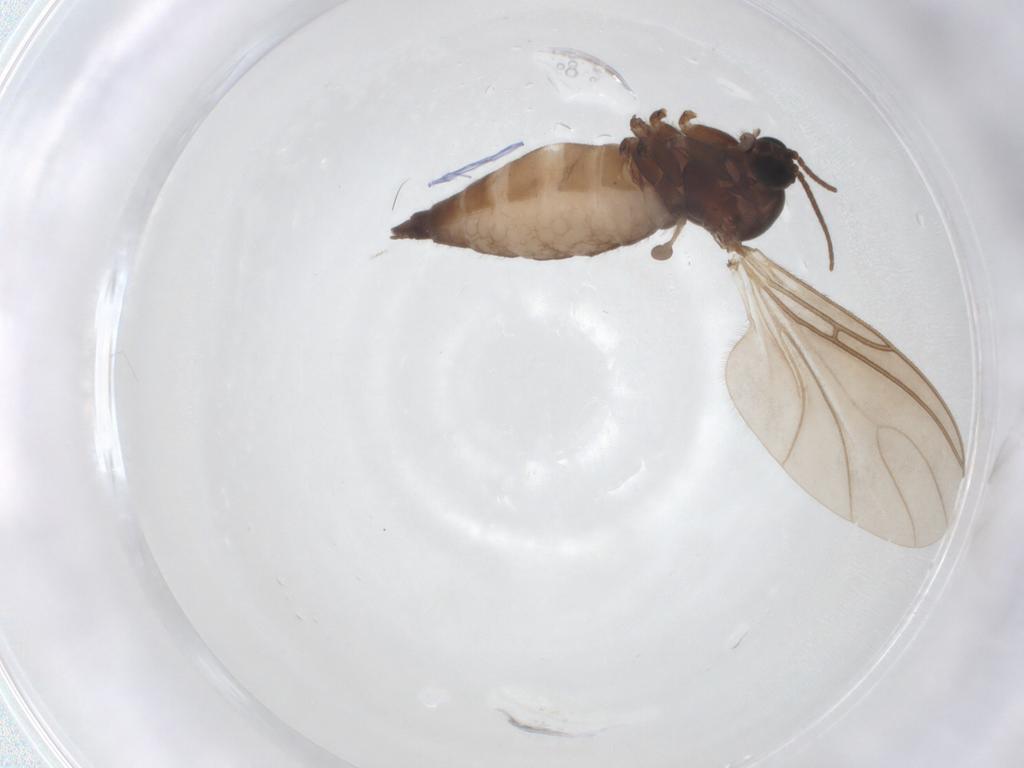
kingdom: Animalia
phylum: Arthropoda
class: Insecta
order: Diptera
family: Sciaridae
